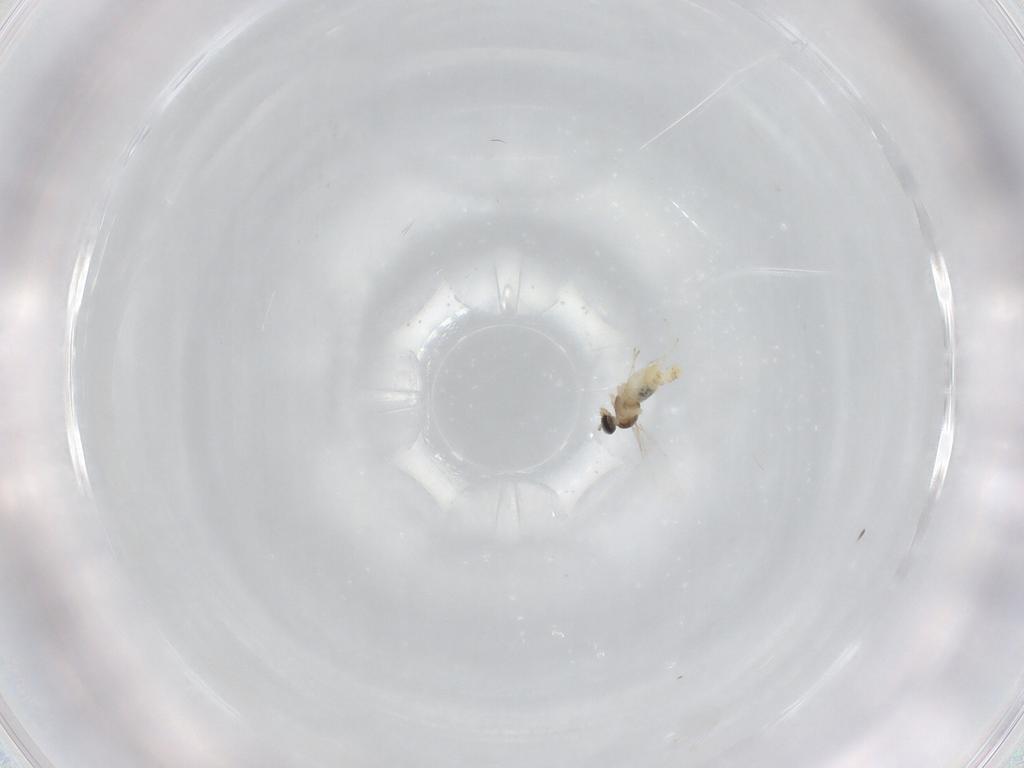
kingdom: Animalia
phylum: Arthropoda
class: Insecta
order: Diptera
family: Cecidomyiidae
